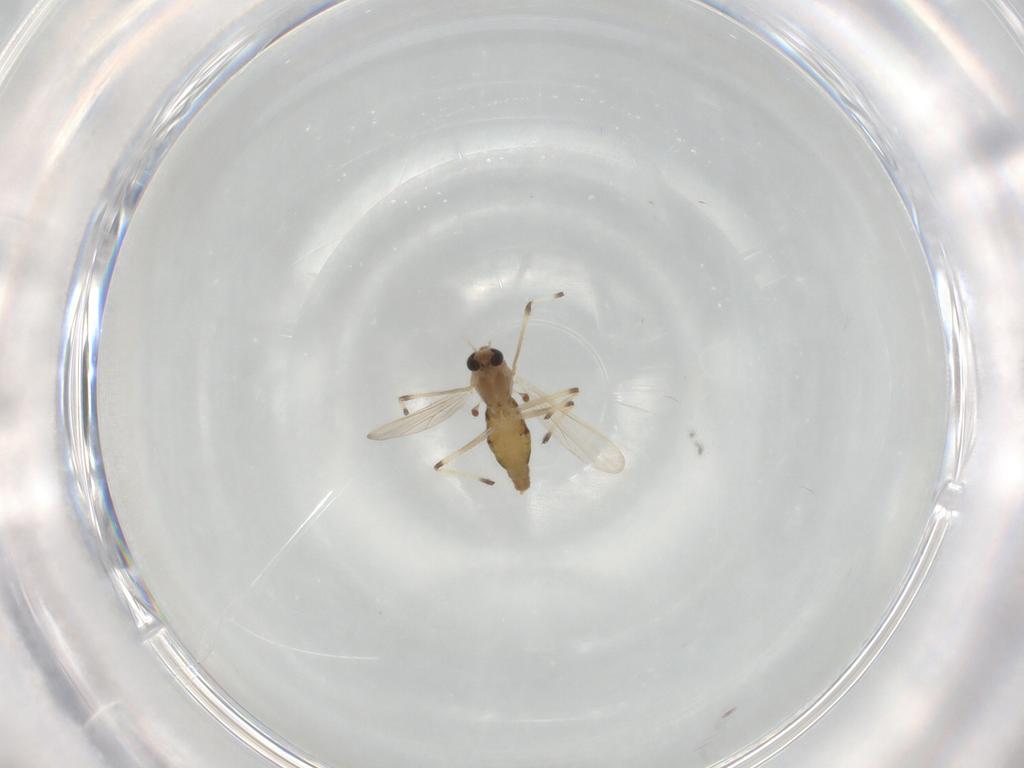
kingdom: Animalia
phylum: Arthropoda
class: Insecta
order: Diptera
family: Chironomidae
